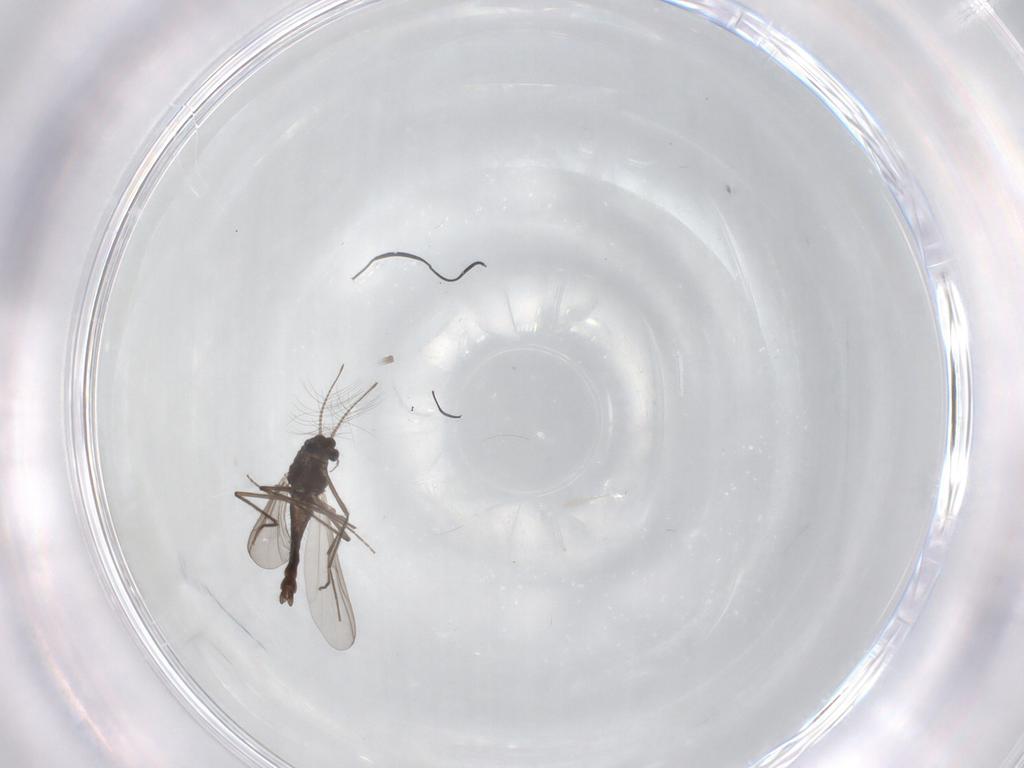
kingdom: Animalia
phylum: Arthropoda
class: Insecta
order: Diptera
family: Chironomidae
